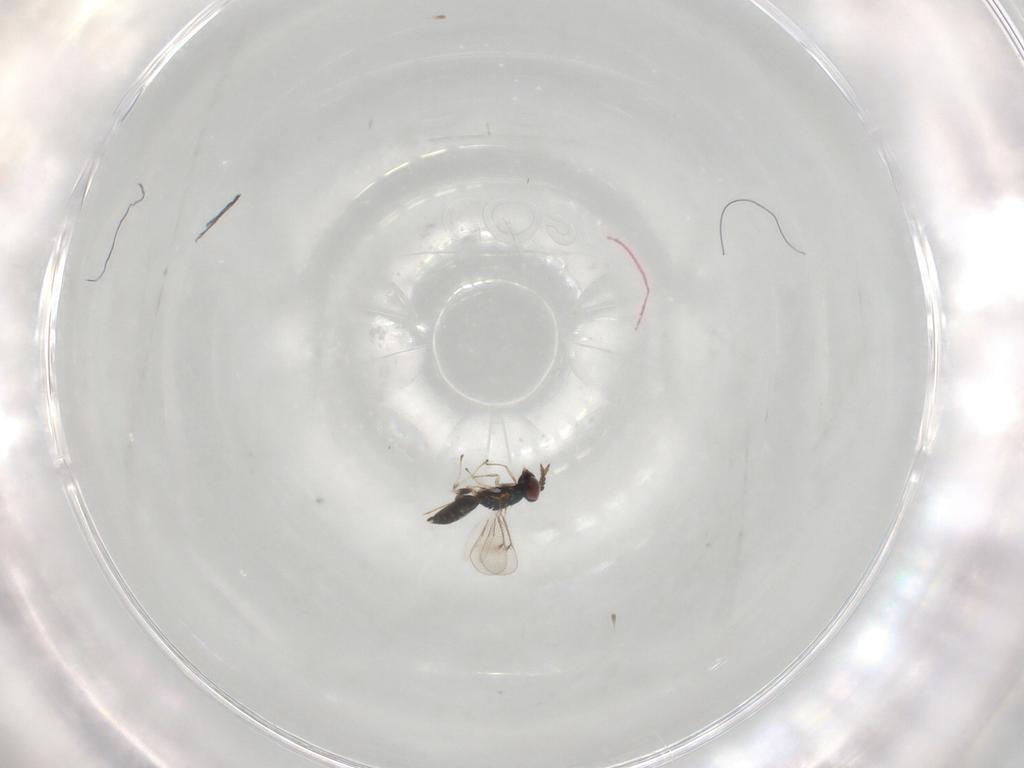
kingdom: Animalia
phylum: Arthropoda
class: Insecta
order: Hymenoptera
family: Eulophidae
